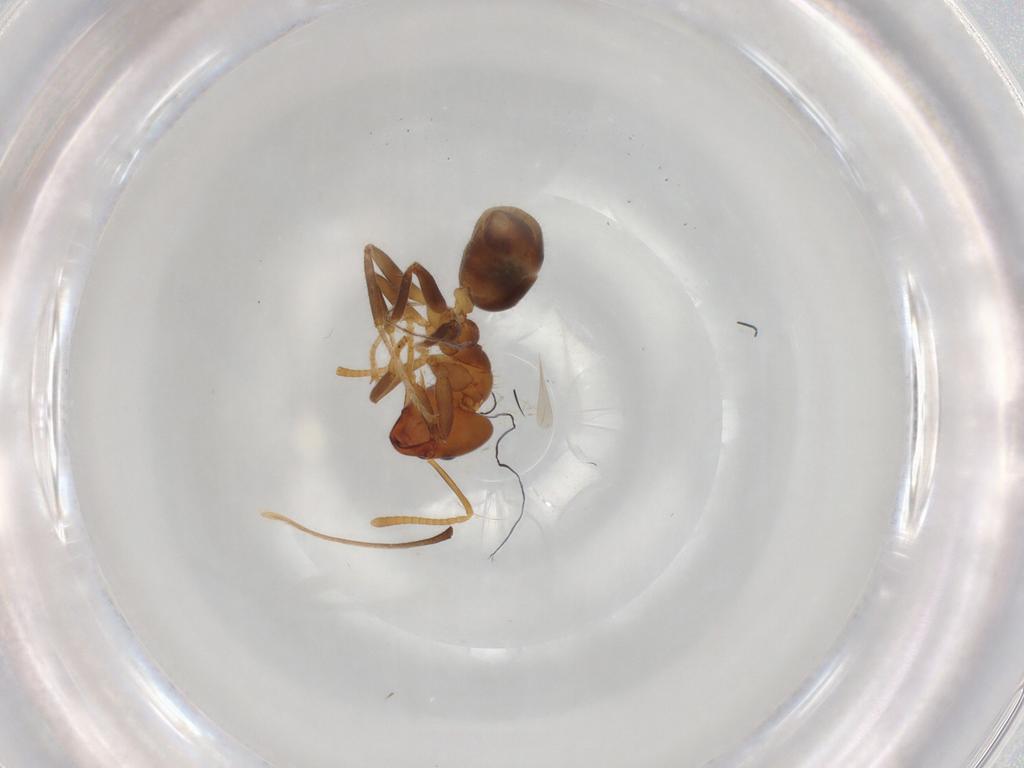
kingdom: Animalia
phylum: Arthropoda
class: Insecta
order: Hymenoptera
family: Formicidae
